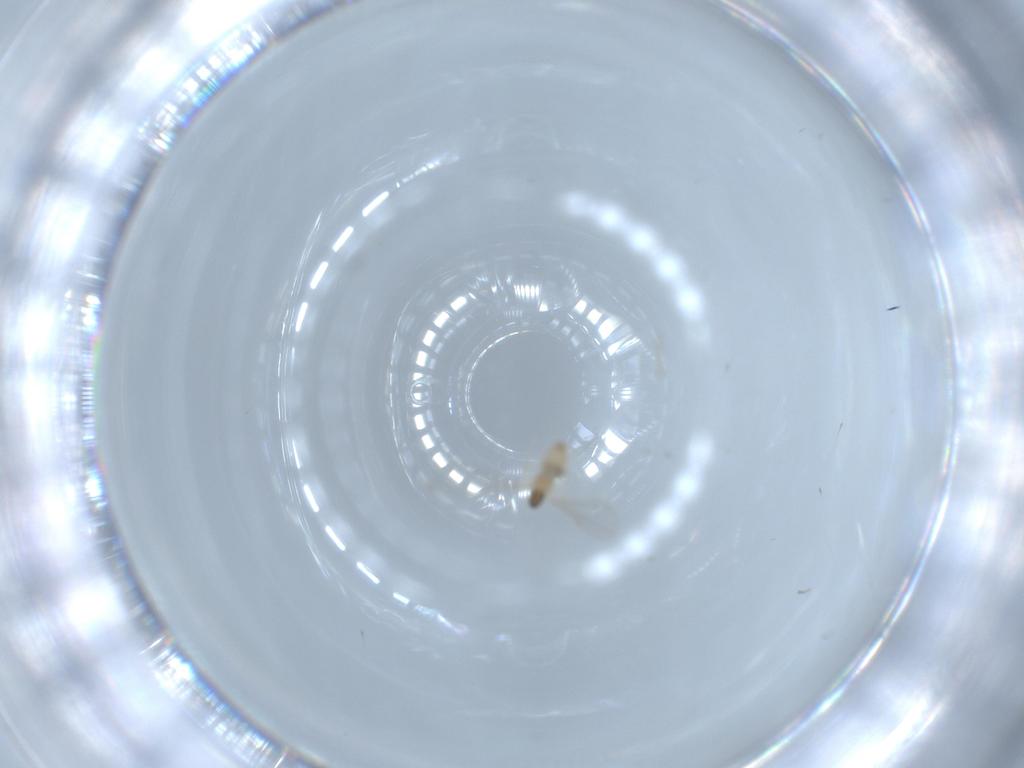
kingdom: Animalia
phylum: Arthropoda
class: Insecta
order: Diptera
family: Cecidomyiidae
